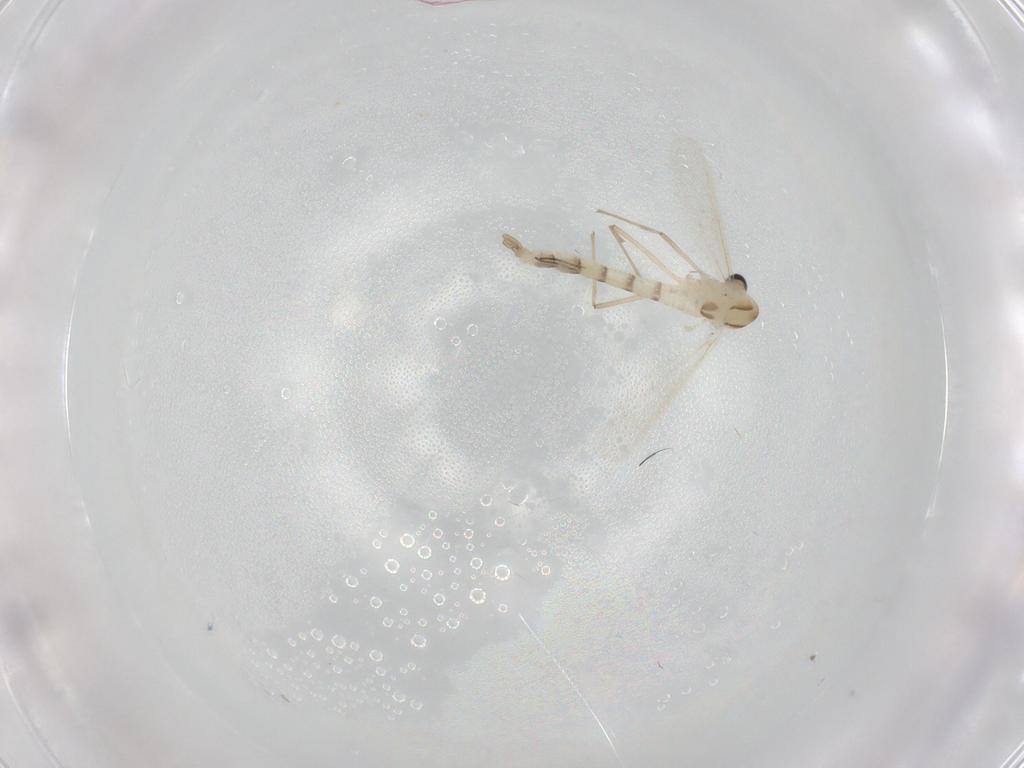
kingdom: Animalia
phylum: Arthropoda
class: Insecta
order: Diptera
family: Chironomidae
